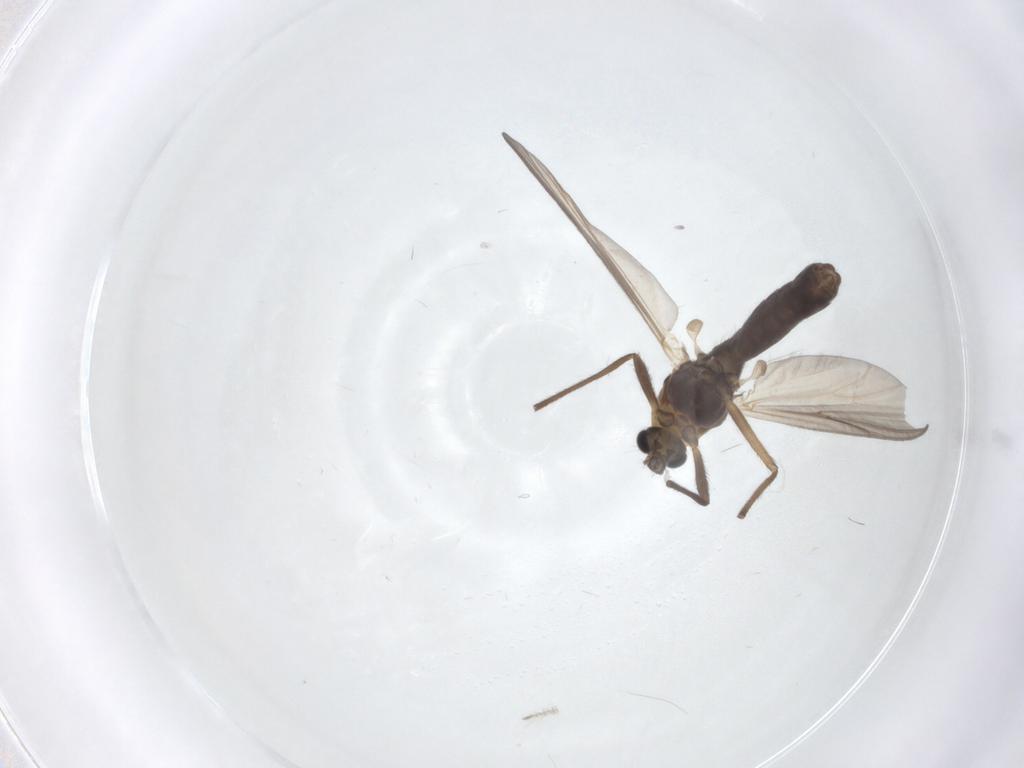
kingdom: Animalia
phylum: Arthropoda
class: Insecta
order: Diptera
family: Chironomidae
